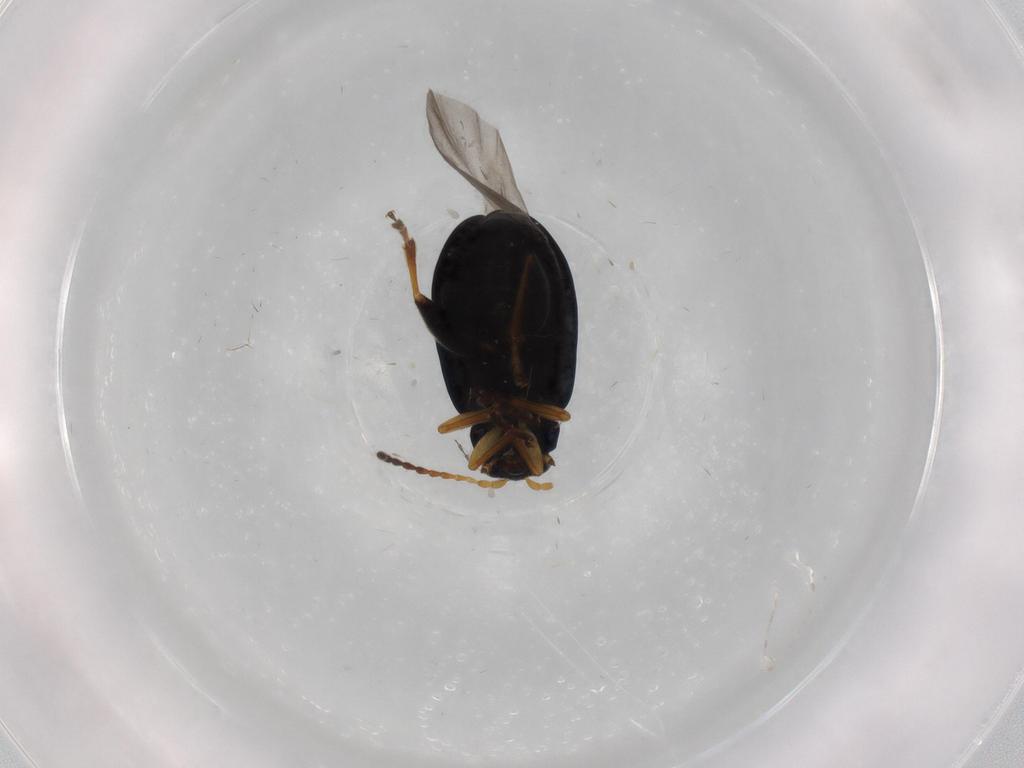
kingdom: Animalia
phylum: Arthropoda
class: Insecta
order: Coleoptera
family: Chrysomelidae
